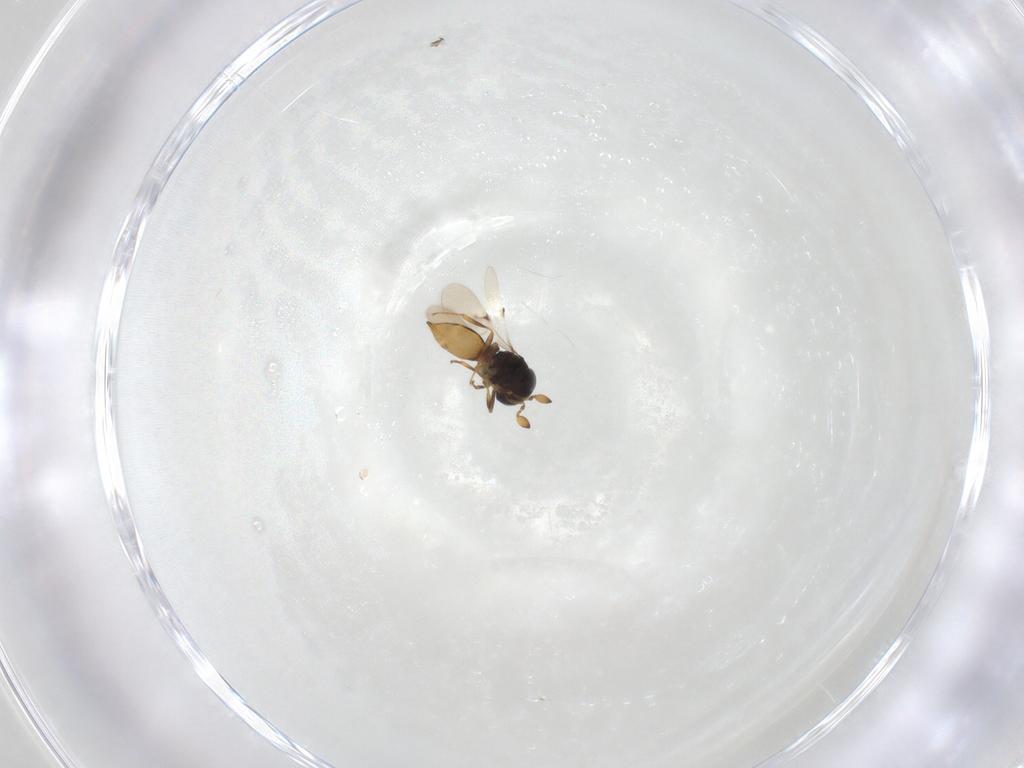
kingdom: Animalia
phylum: Arthropoda
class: Insecta
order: Hymenoptera
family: Scelionidae
